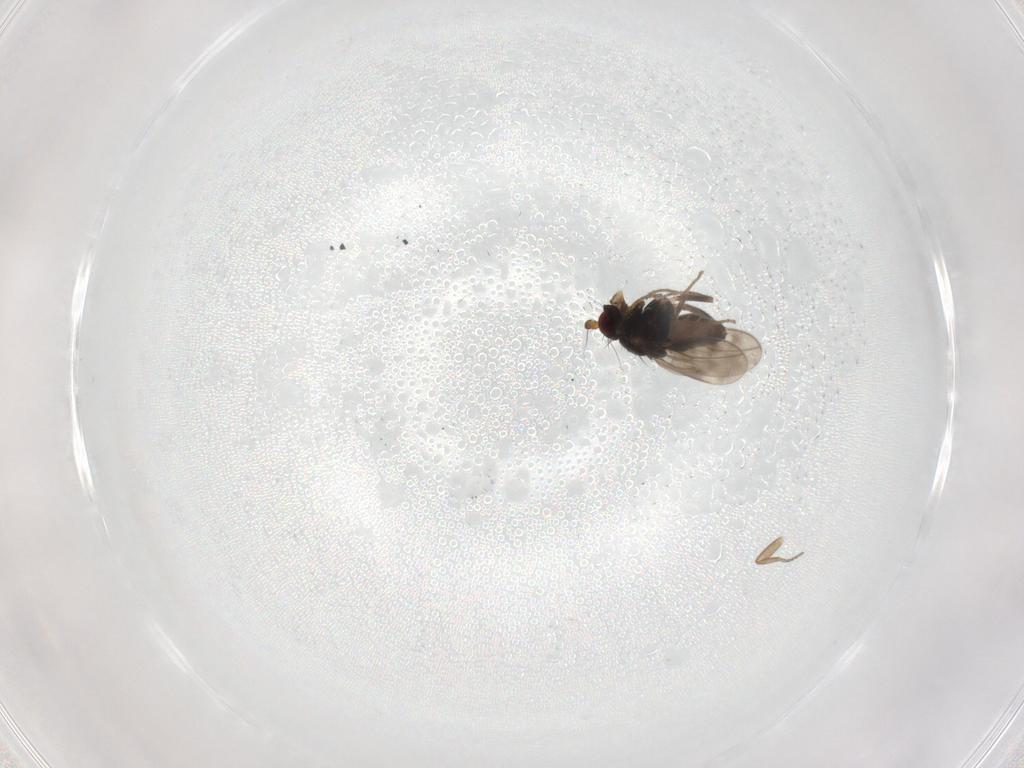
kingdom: Animalia
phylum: Arthropoda
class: Insecta
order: Diptera
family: Sphaeroceridae
